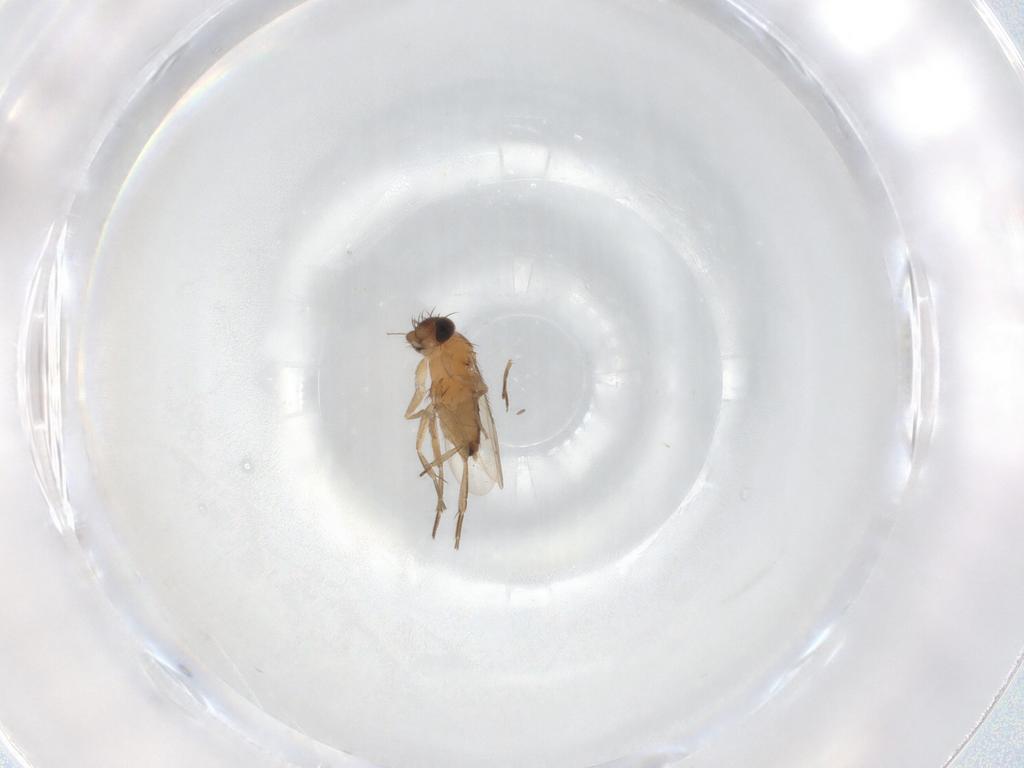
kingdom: Animalia
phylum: Arthropoda
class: Insecta
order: Diptera
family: Phoridae
